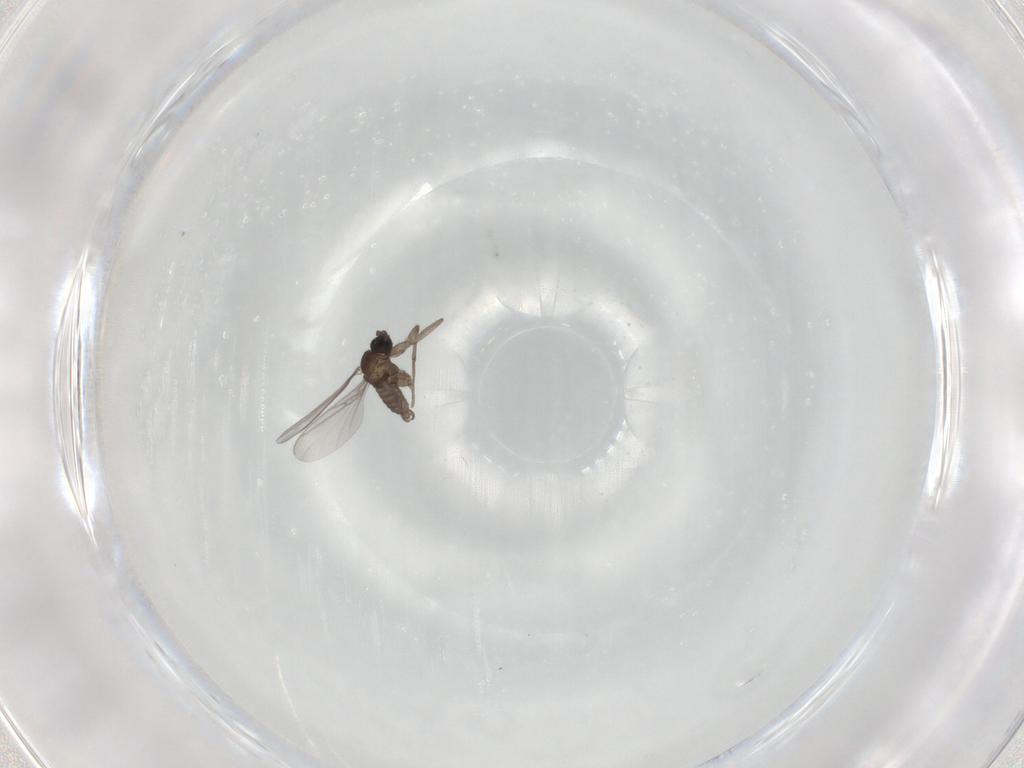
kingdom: Animalia
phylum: Arthropoda
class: Insecta
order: Diptera
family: Sciaridae
